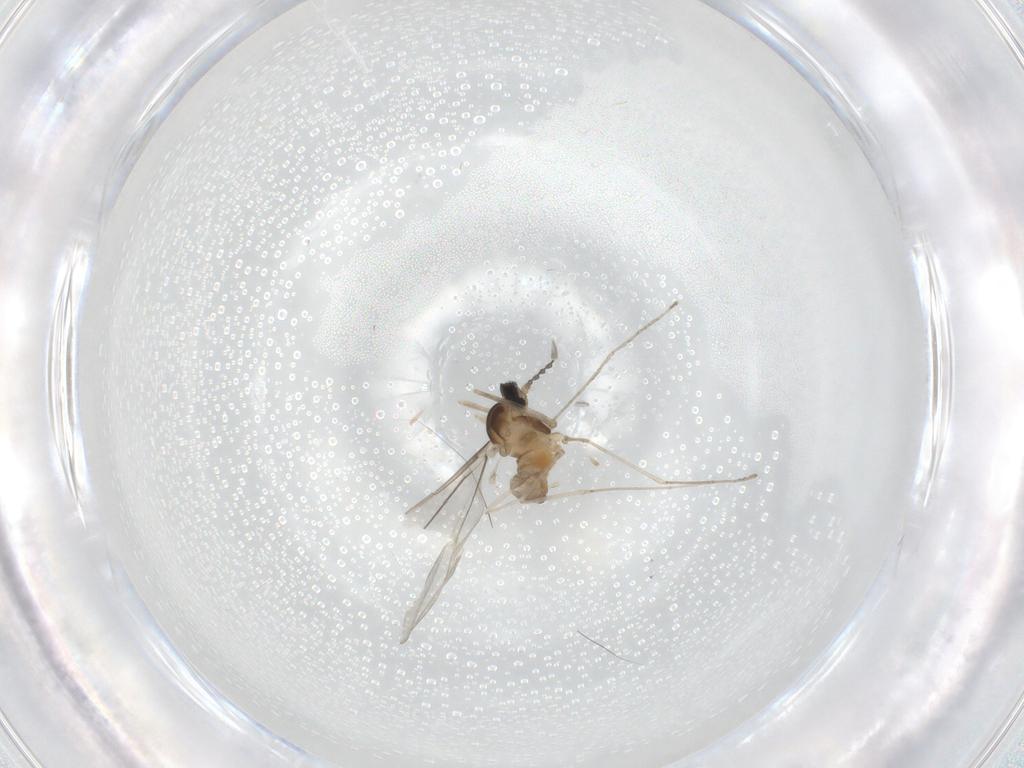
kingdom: Animalia
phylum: Arthropoda
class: Insecta
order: Diptera
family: Cecidomyiidae
